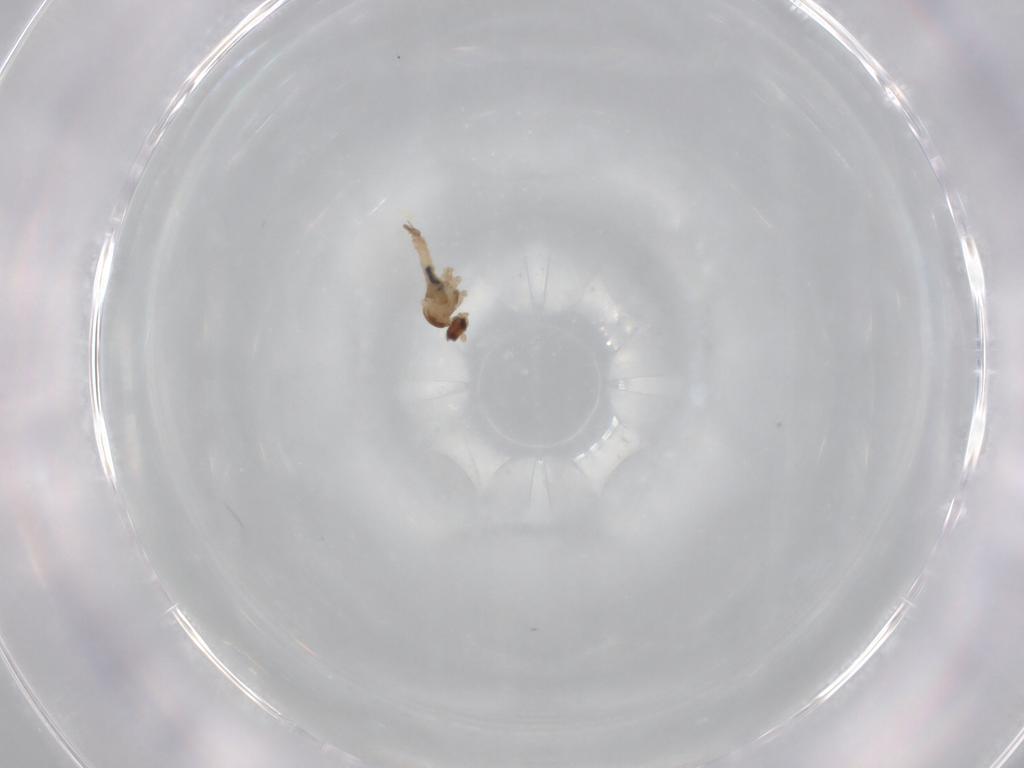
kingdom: Animalia
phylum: Arthropoda
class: Insecta
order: Diptera
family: Cecidomyiidae
